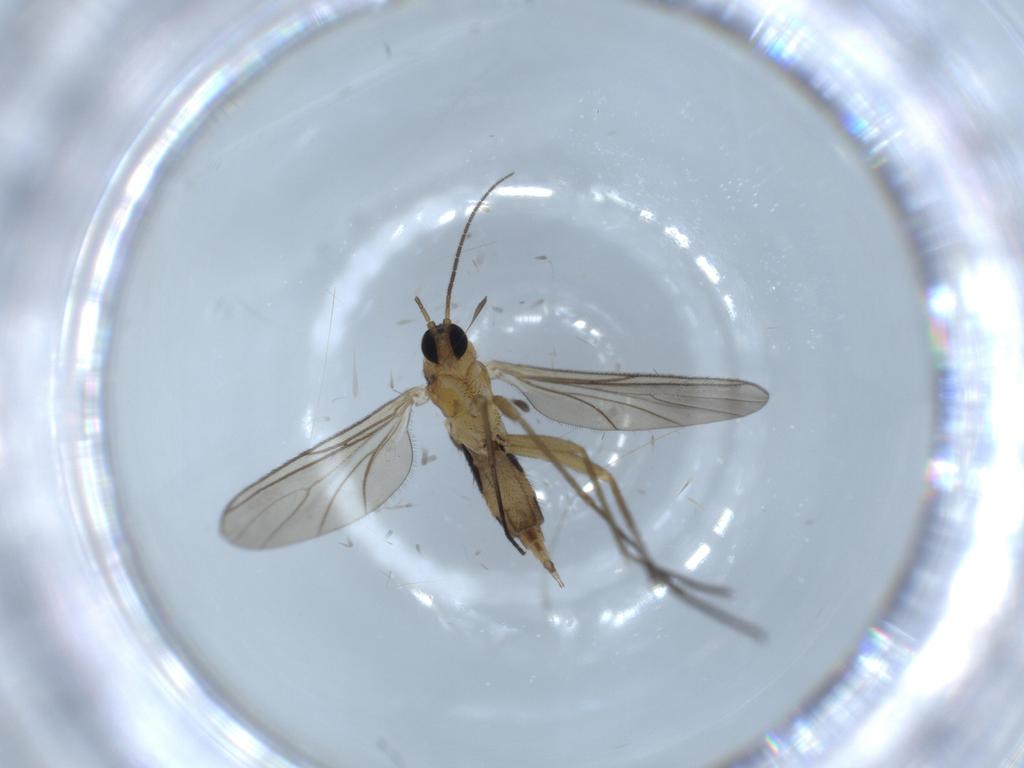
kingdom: Animalia
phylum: Arthropoda
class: Insecta
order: Diptera
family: Sciaridae
